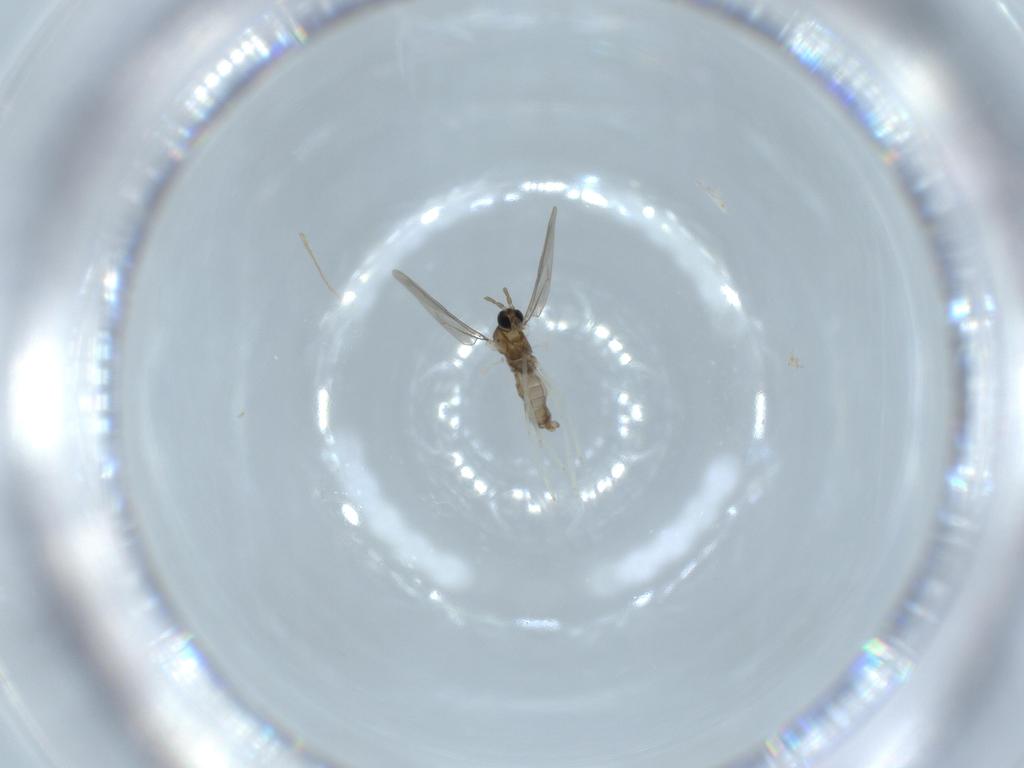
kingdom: Animalia
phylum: Arthropoda
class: Insecta
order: Diptera
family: Cecidomyiidae
